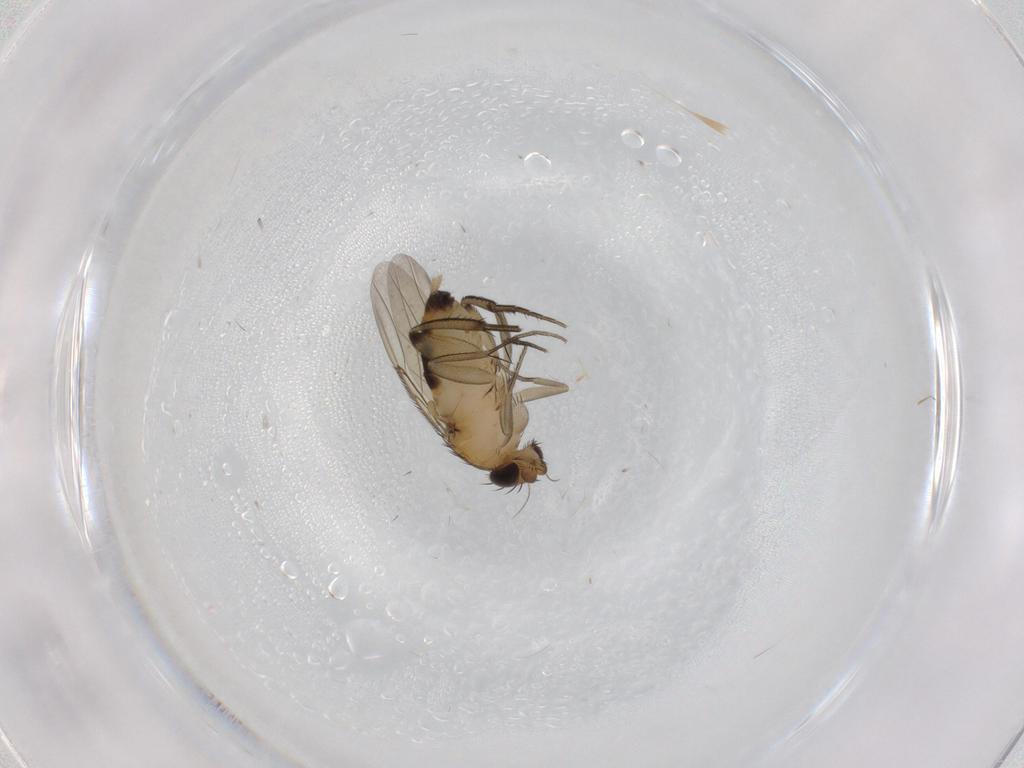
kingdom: Animalia
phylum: Arthropoda
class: Insecta
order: Diptera
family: Phoridae
